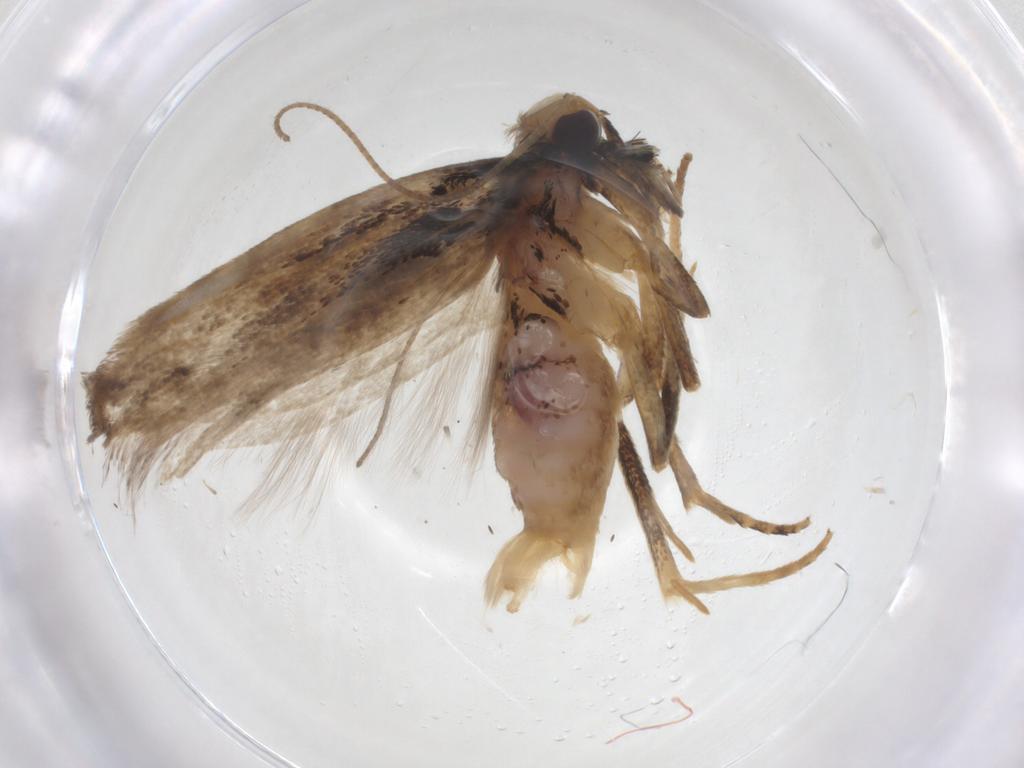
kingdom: Animalia
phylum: Arthropoda
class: Insecta
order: Lepidoptera
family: Gelechiidae
